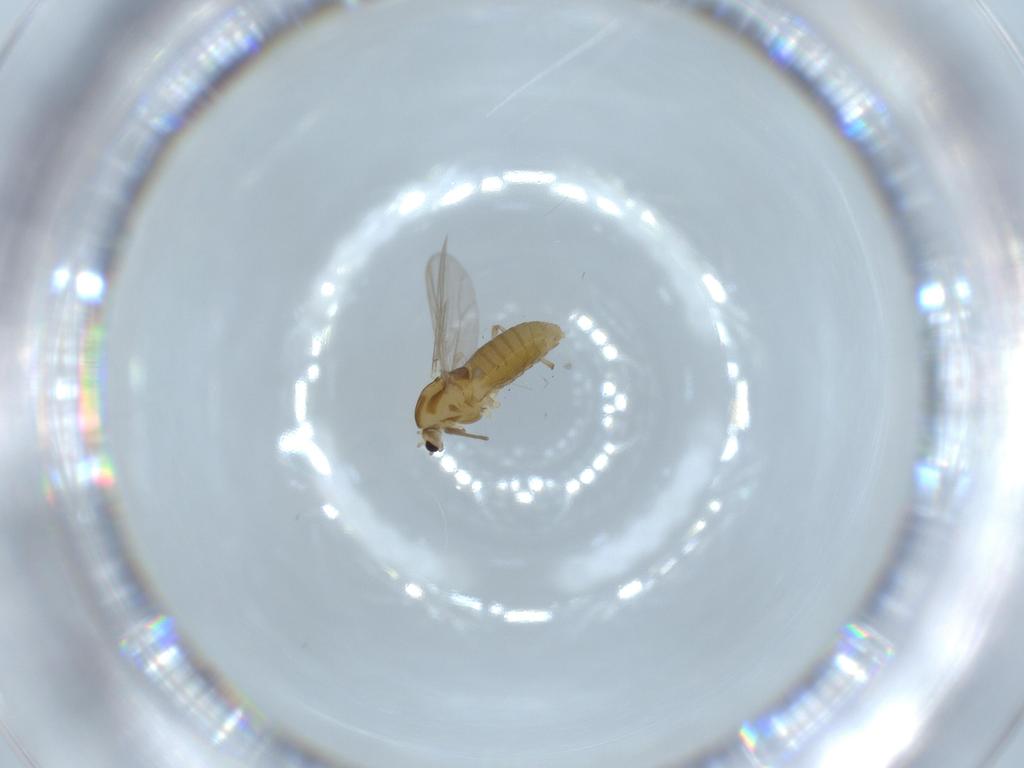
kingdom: Animalia
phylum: Arthropoda
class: Insecta
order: Diptera
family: Chironomidae
